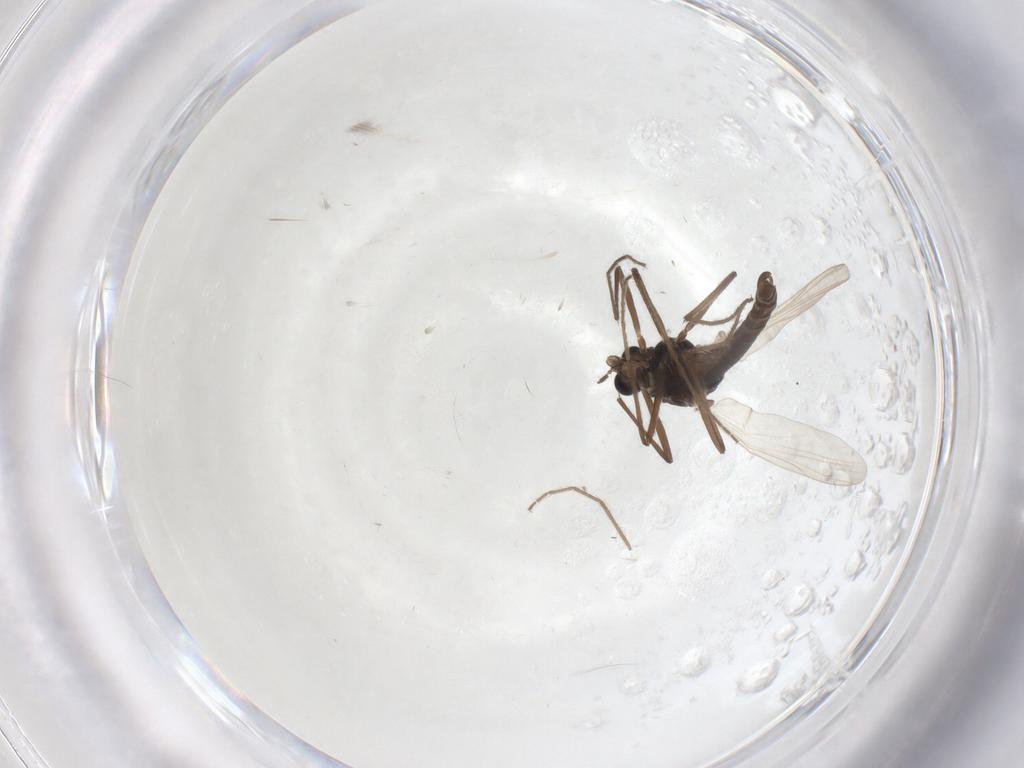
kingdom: Animalia
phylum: Arthropoda
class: Insecta
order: Diptera
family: Chironomidae
